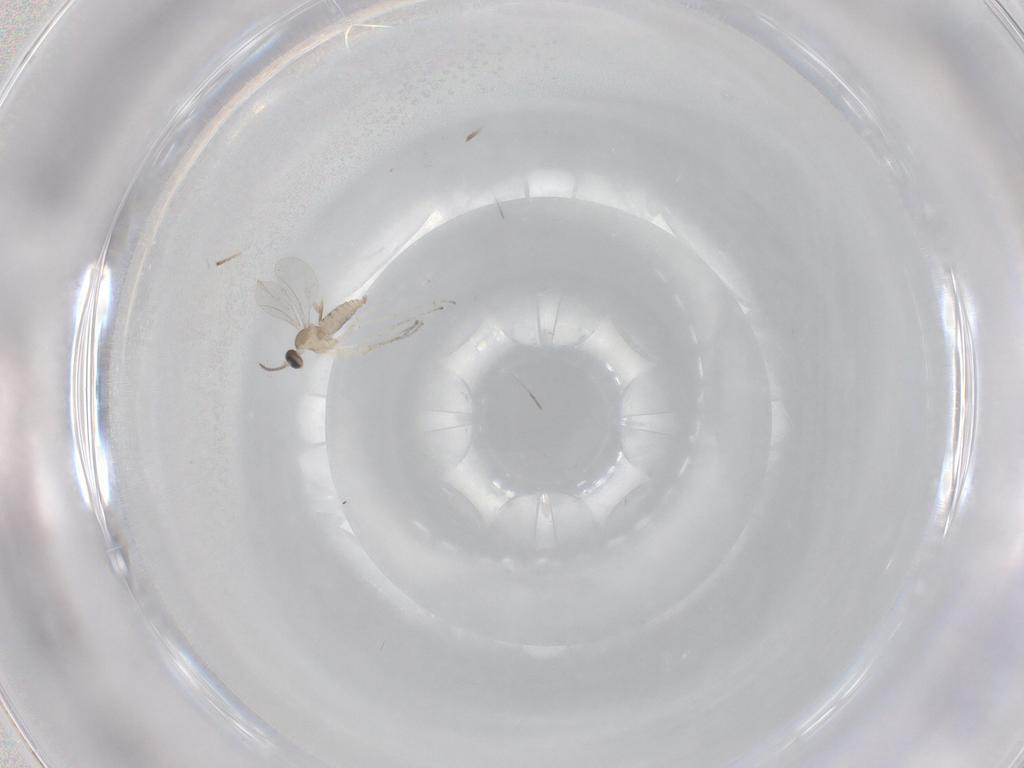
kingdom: Animalia
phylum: Arthropoda
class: Insecta
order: Diptera
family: Cecidomyiidae
